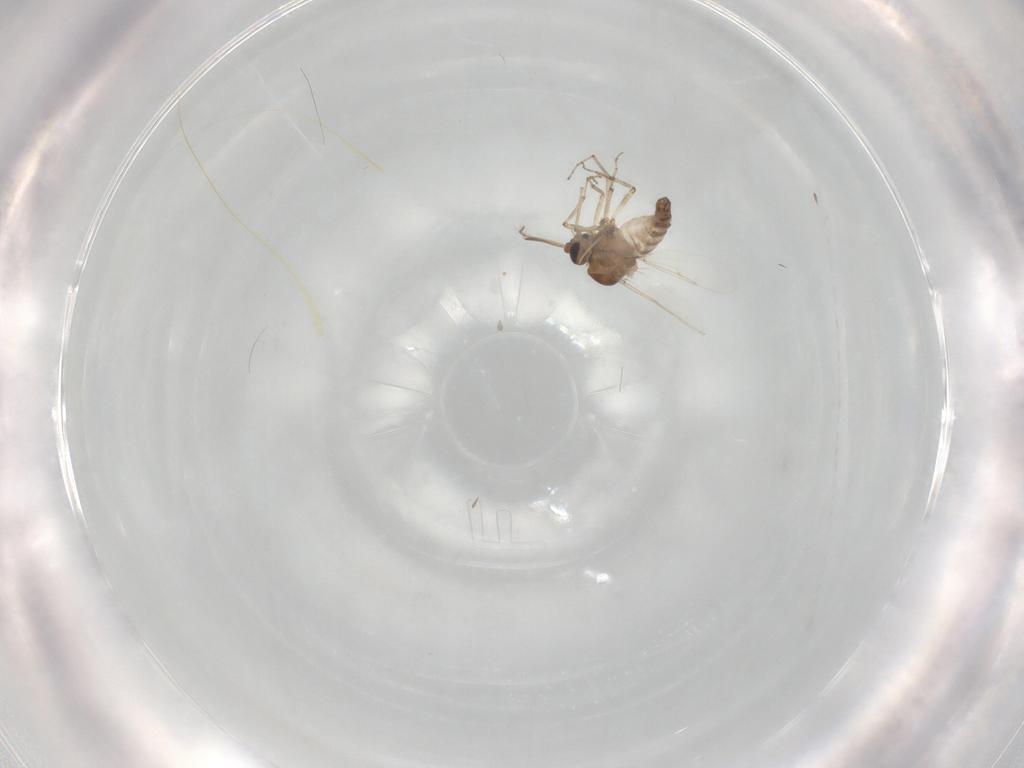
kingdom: Animalia
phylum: Arthropoda
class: Insecta
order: Diptera
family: Ceratopogonidae
